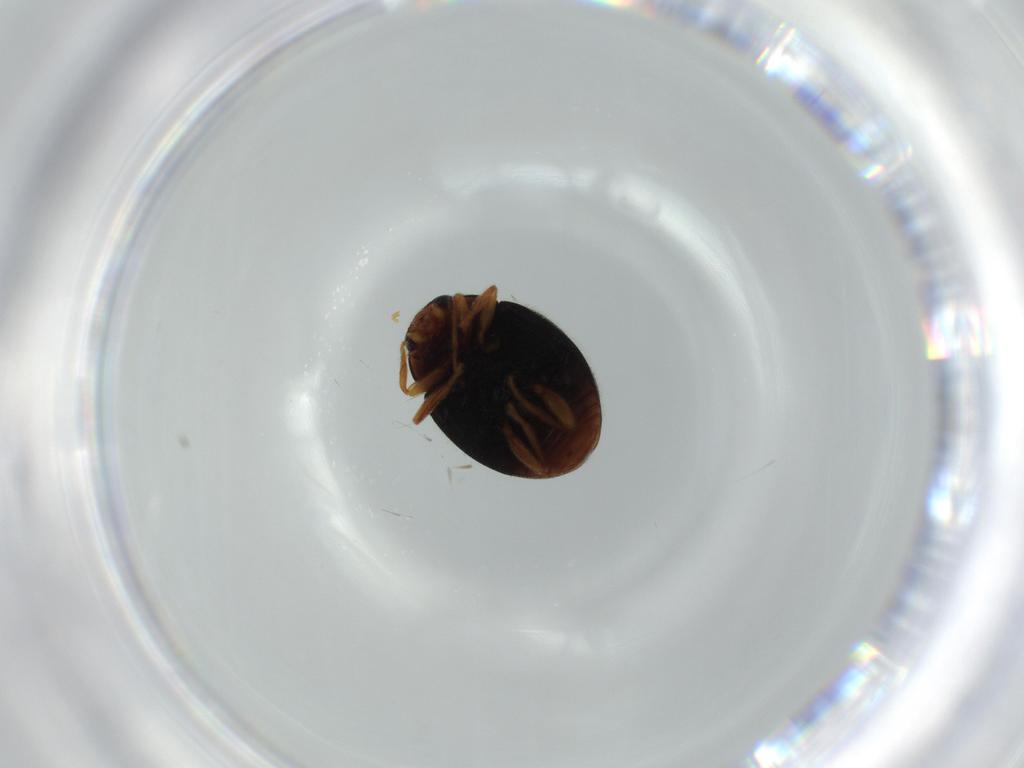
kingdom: Animalia
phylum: Arthropoda
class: Insecta
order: Coleoptera
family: Coccinellidae
